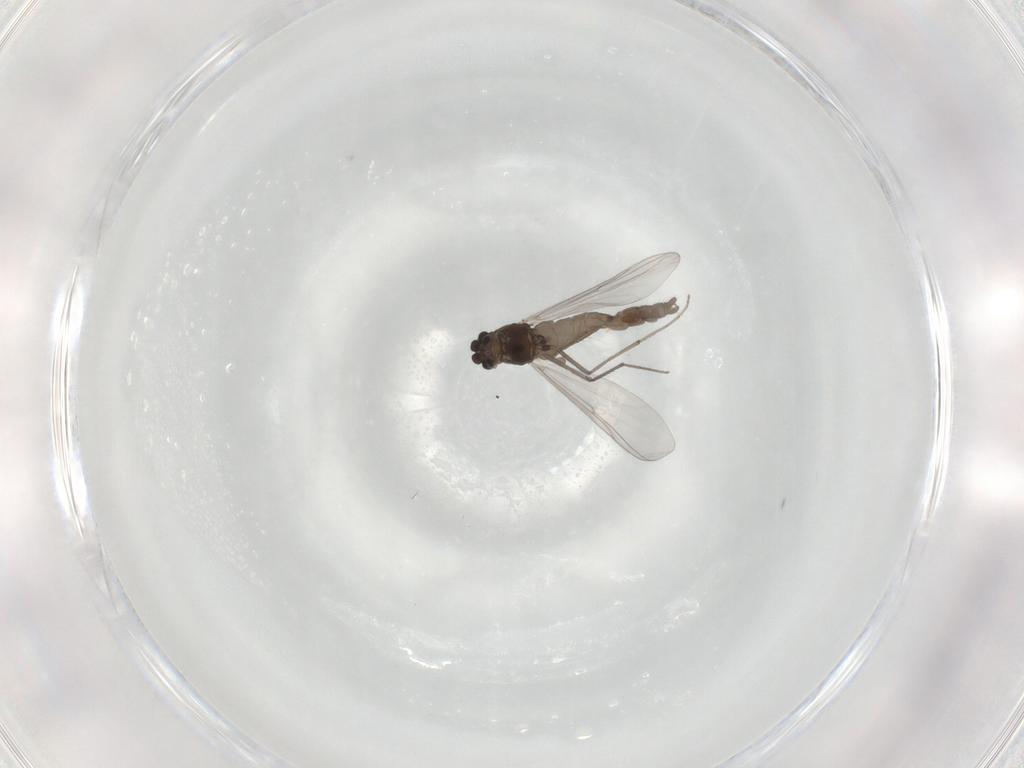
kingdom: Animalia
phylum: Arthropoda
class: Insecta
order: Diptera
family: Chironomidae
